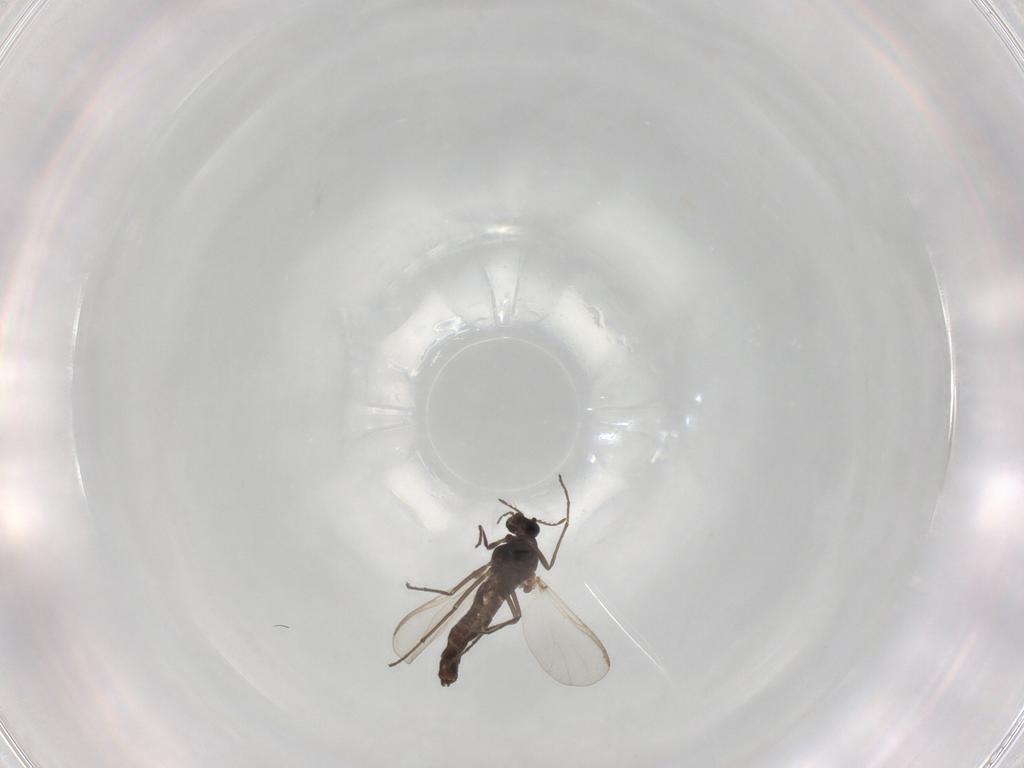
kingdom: Animalia
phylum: Arthropoda
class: Insecta
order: Diptera
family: Chironomidae
